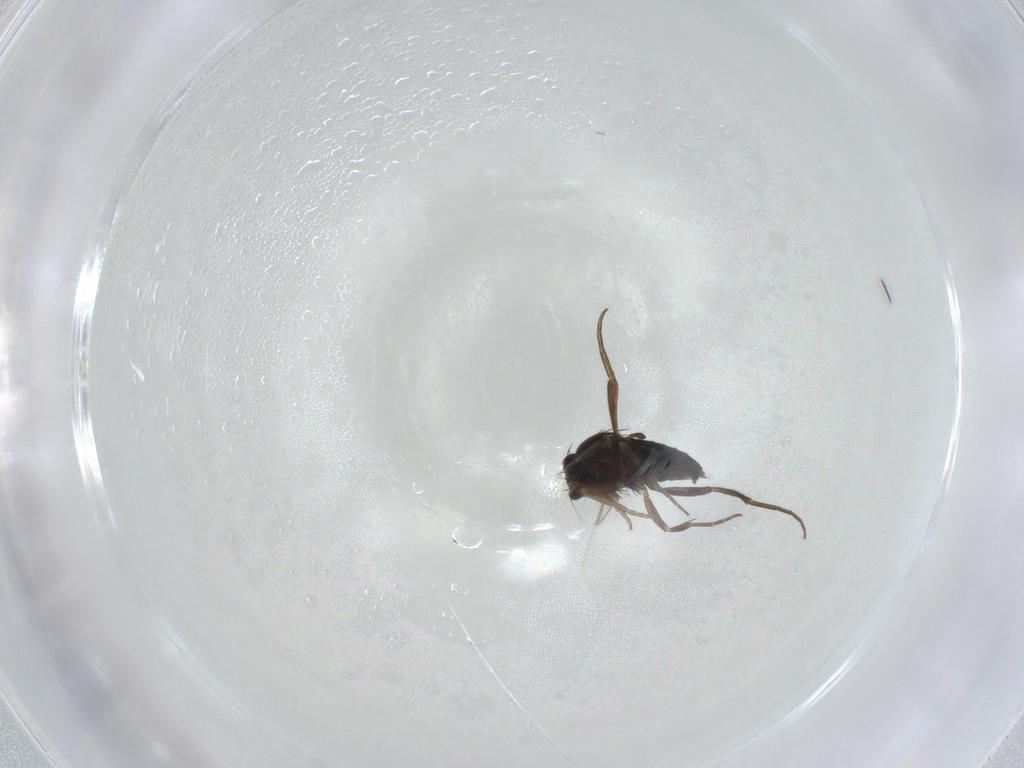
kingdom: Animalia
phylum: Arthropoda
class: Insecta
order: Diptera
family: Phoridae
